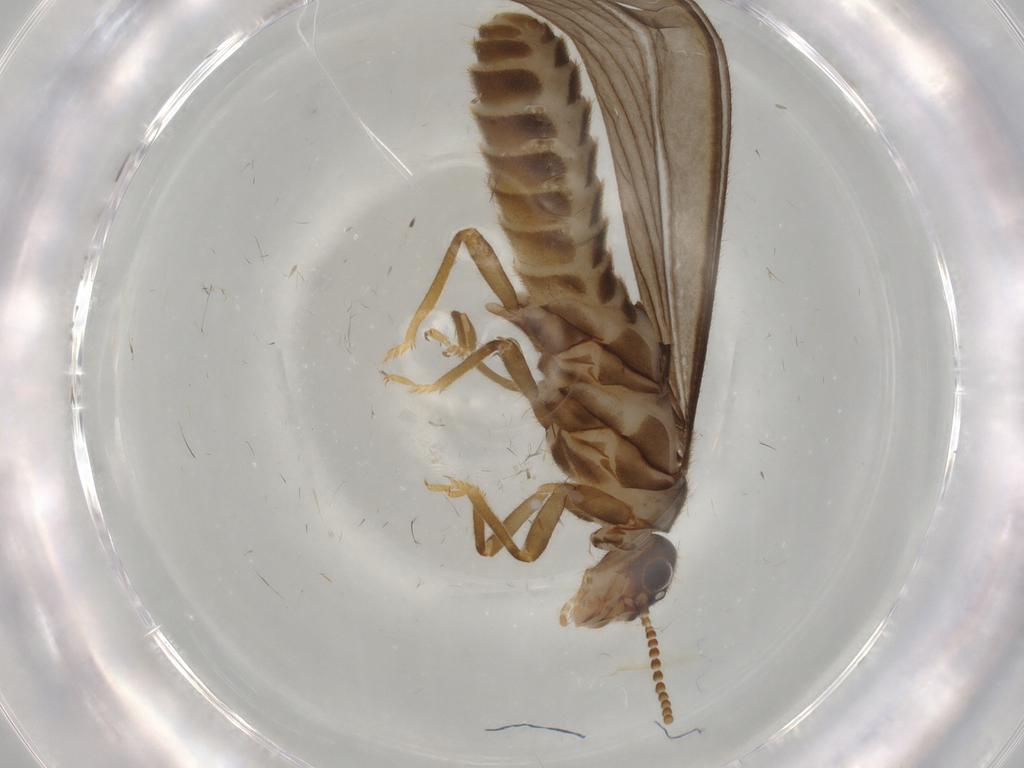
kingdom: Animalia
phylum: Arthropoda
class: Insecta
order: Blattodea
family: Termitidae
